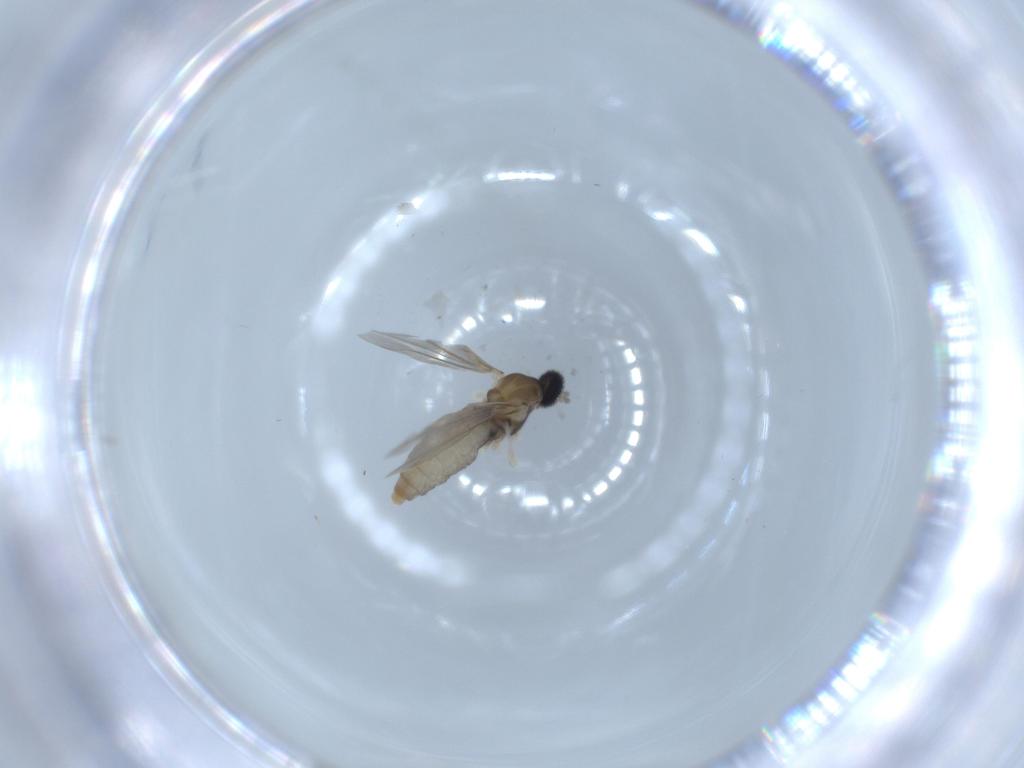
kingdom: Animalia
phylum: Arthropoda
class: Insecta
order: Diptera
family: Cecidomyiidae
